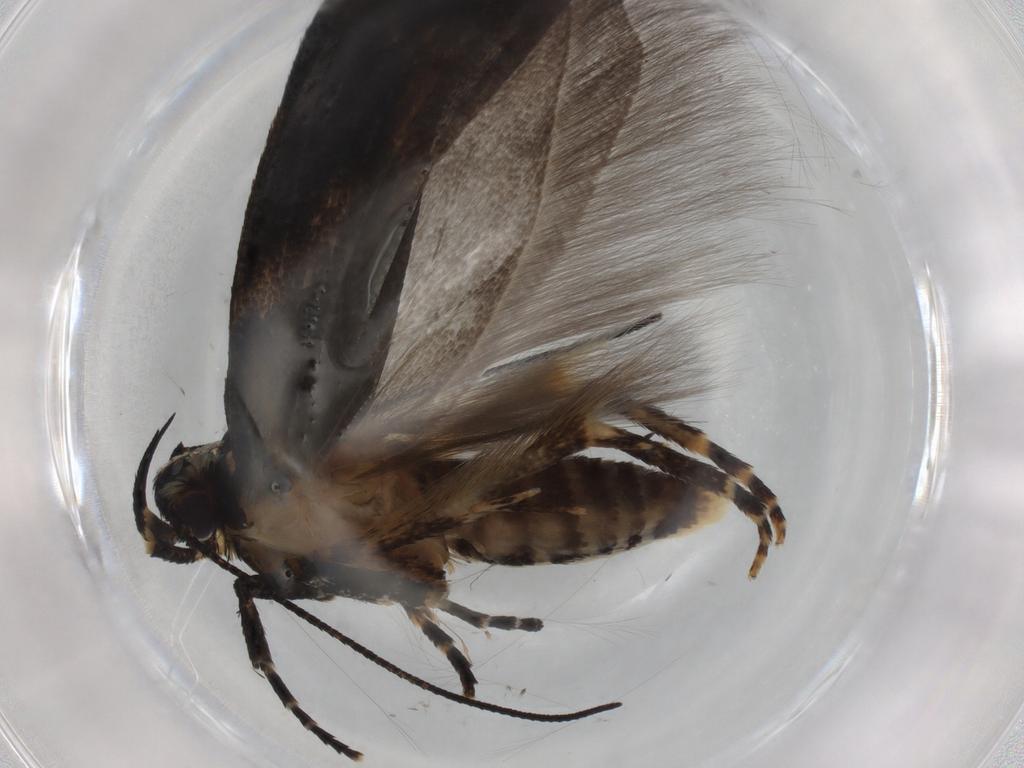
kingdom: Animalia
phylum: Arthropoda
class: Insecta
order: Lepidoptera
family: Gelechiidae
